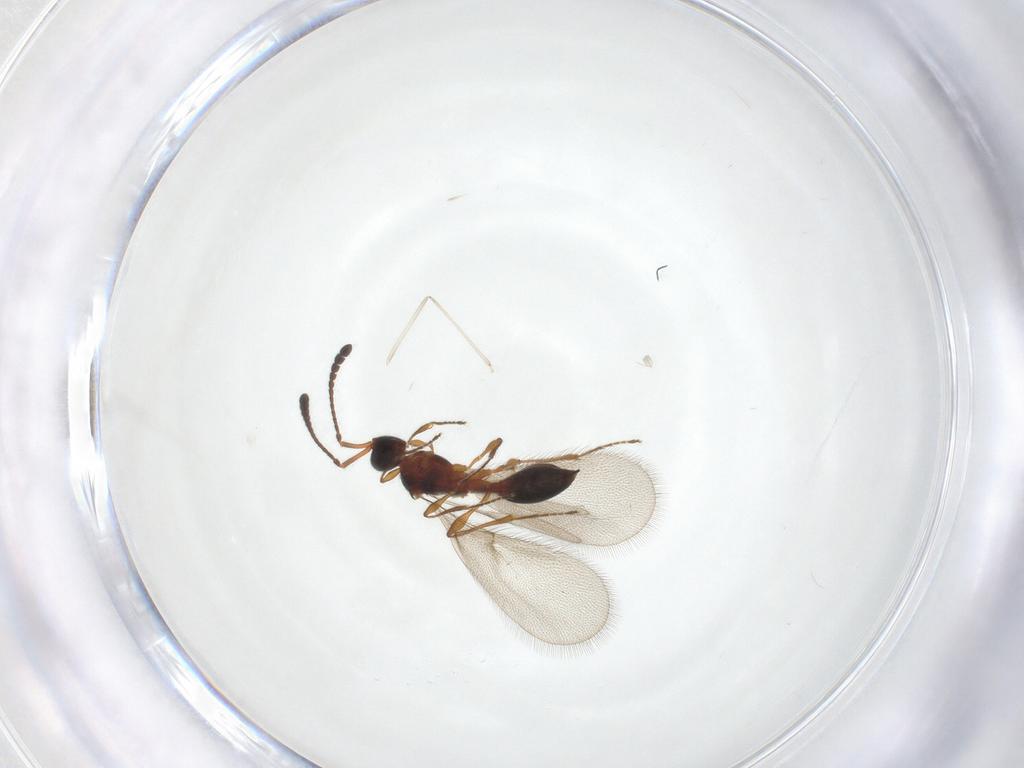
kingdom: Animalia
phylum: Arthropoda
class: Insecta
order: Hymenoptera
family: Diapriidae
